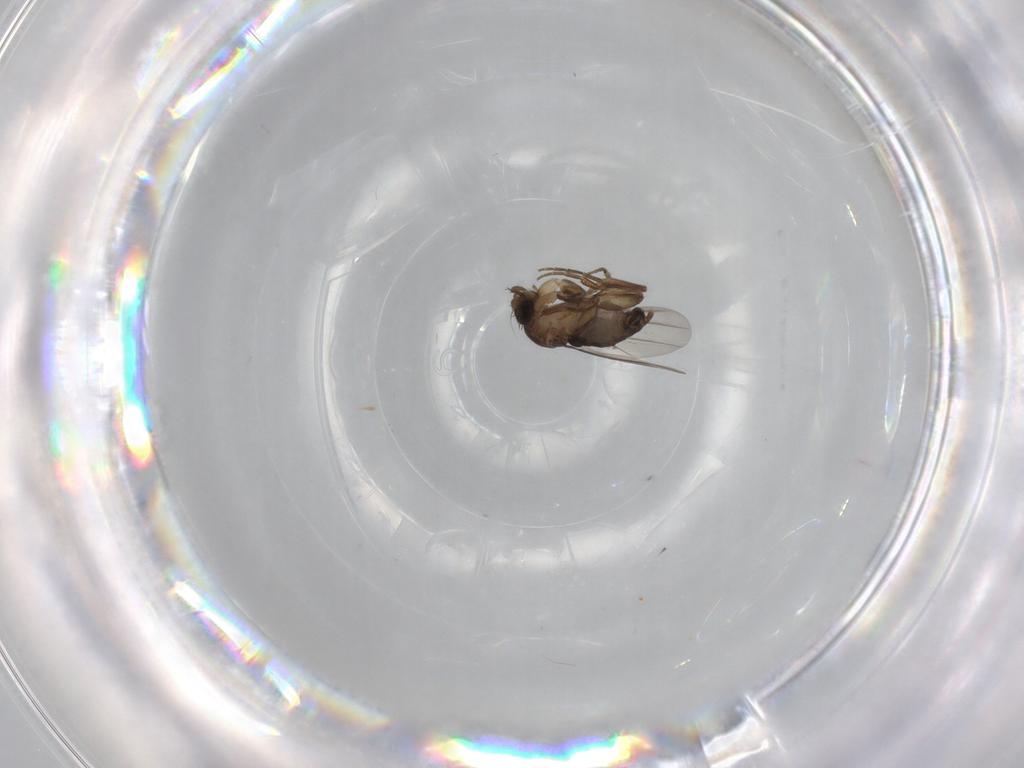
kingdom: Animalia
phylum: Arthropoda
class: Insecta
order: Diptera
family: Phoridae
